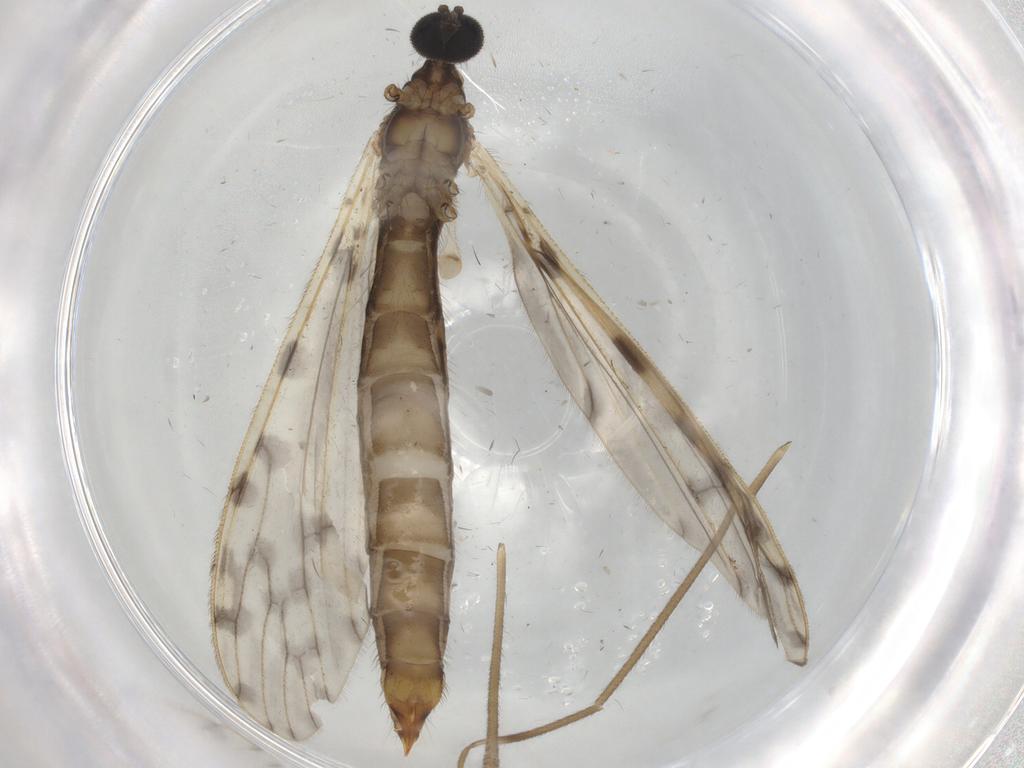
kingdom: Animalia
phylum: Arthropoda
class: Insecta
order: Diptera
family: Limoniidae
